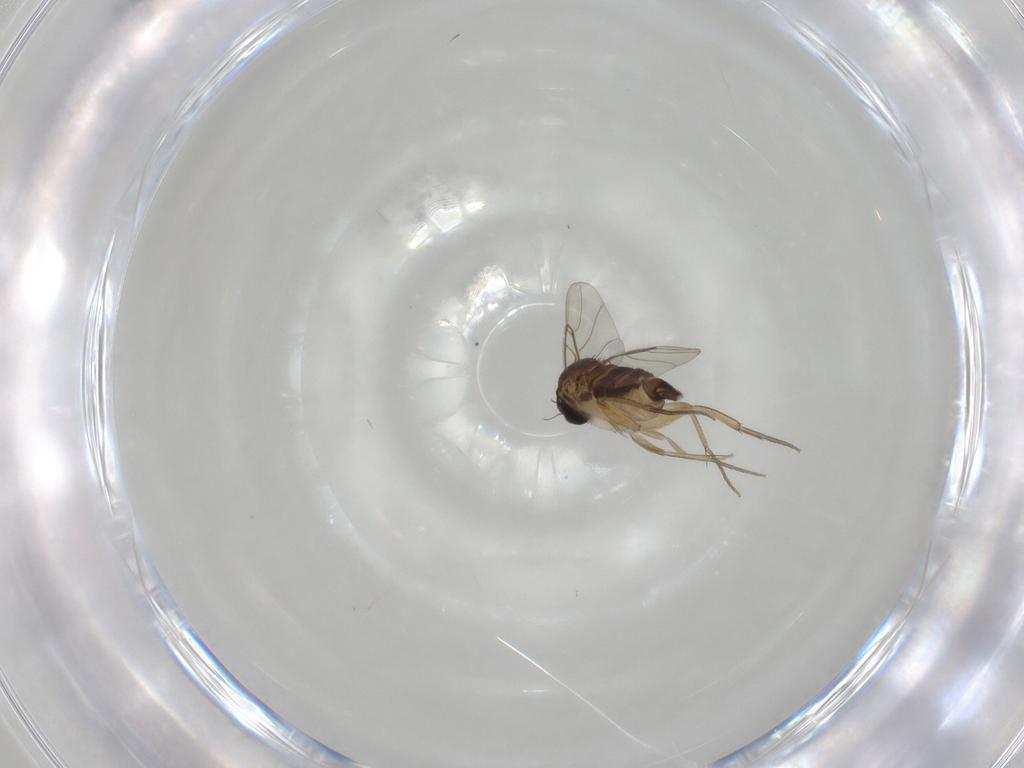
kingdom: Animalia
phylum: Arthropoda
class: Insecta
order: Diptera
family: Phoridae
